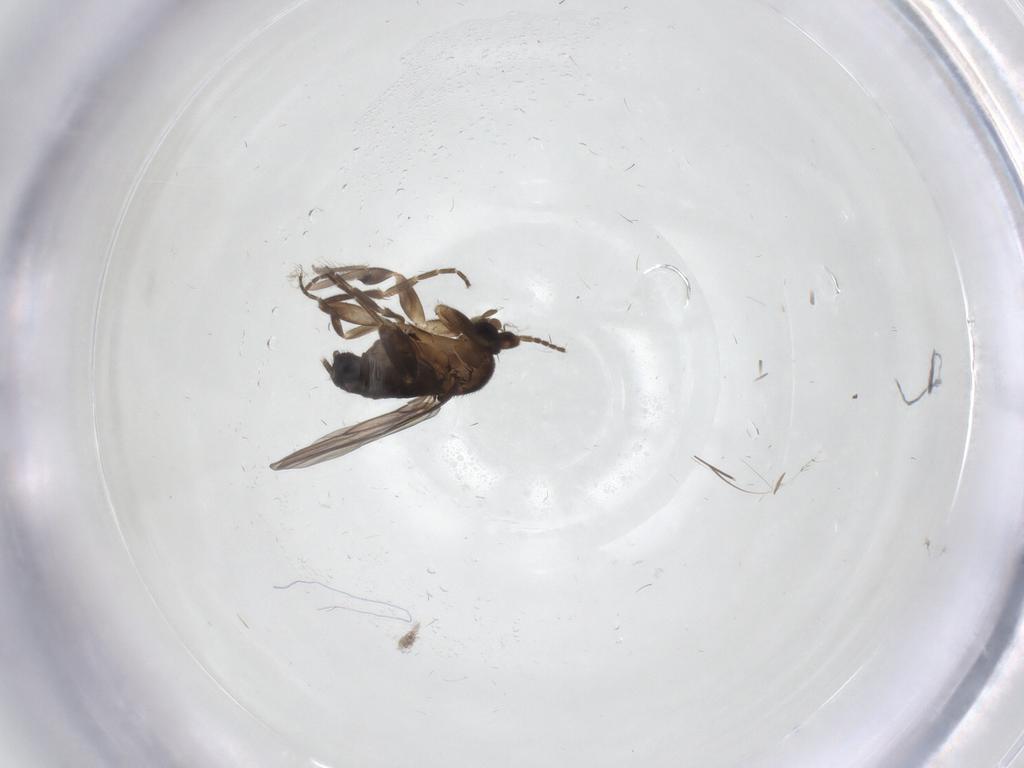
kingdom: Animalia
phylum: Arthropoda
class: Insecta
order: Diptera
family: Phoridae
